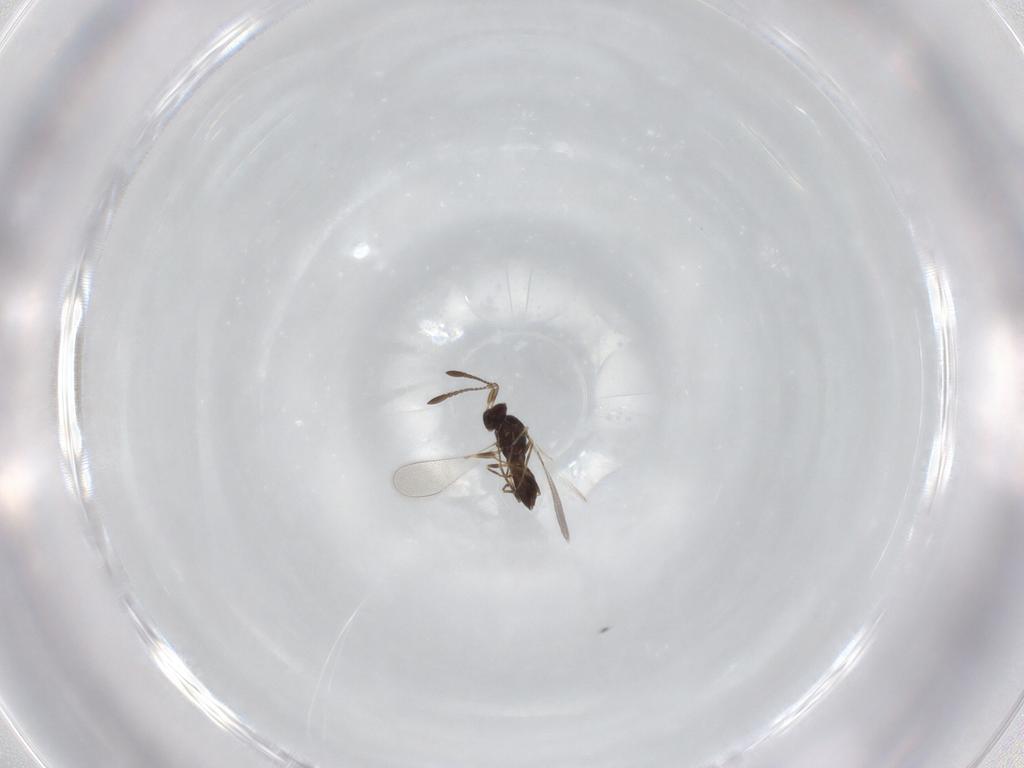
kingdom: Animalia
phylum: Arthropoda
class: Insecta
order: Hymenoptera
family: Mymaridae
